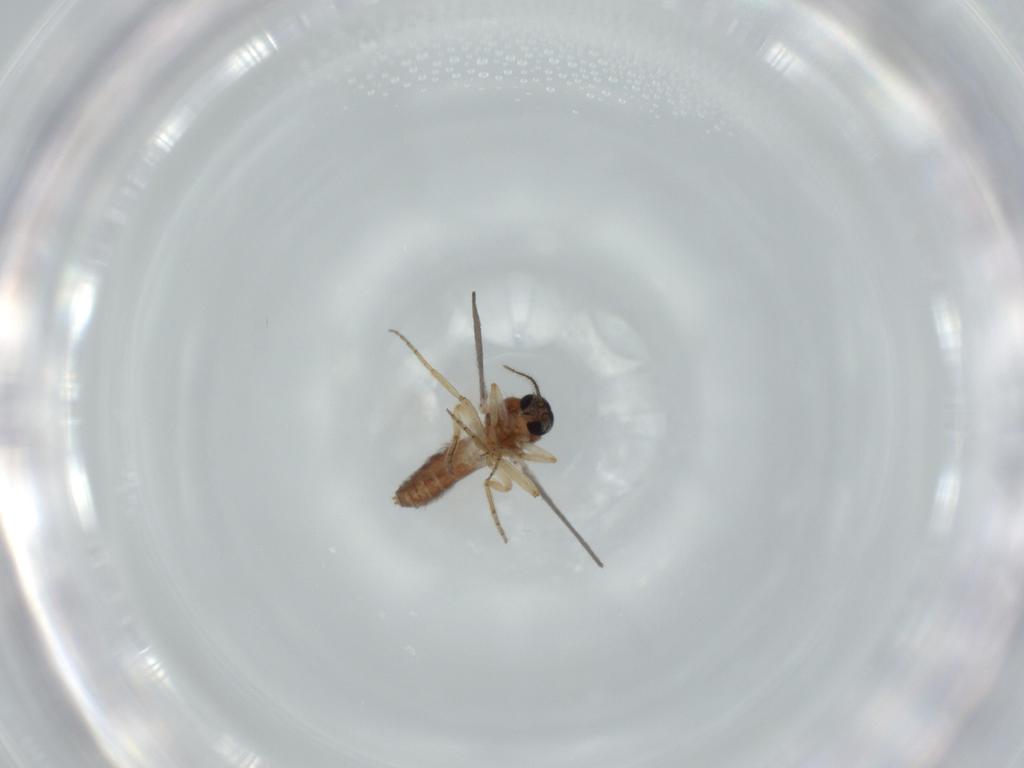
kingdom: Animalia
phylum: Arthropoda
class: Insecta
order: Diptera
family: Ceratopogonidae
